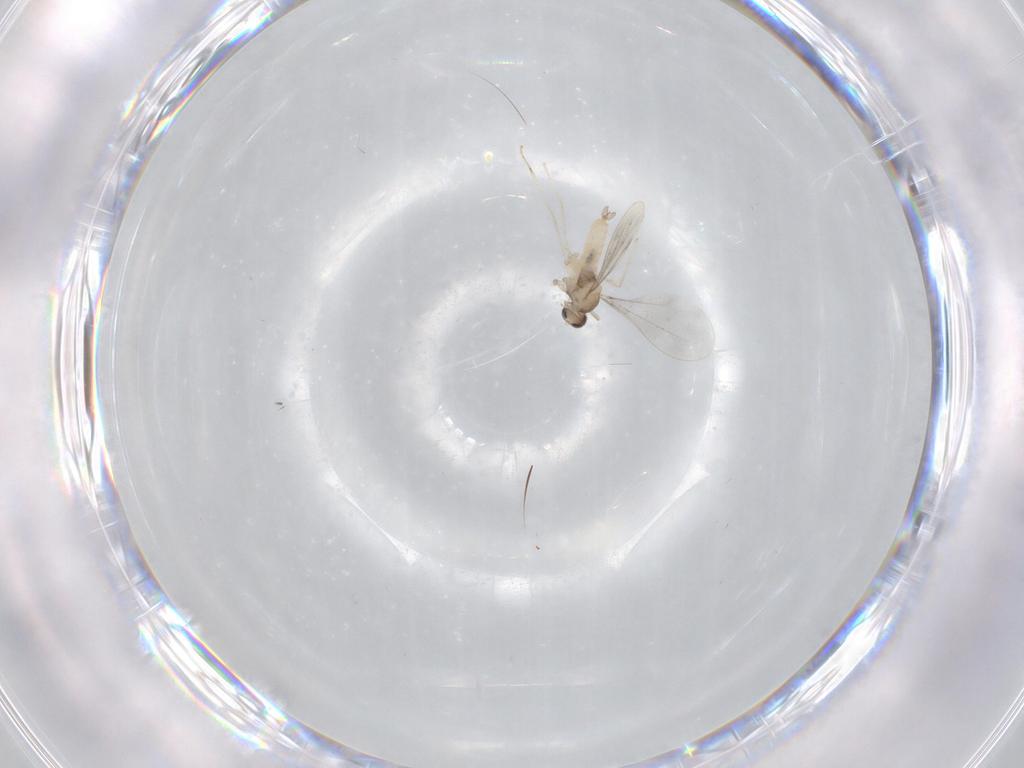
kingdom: Animalia
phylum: Arthropoda
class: Insecta
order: Diptera
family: Cecidomyiidae
